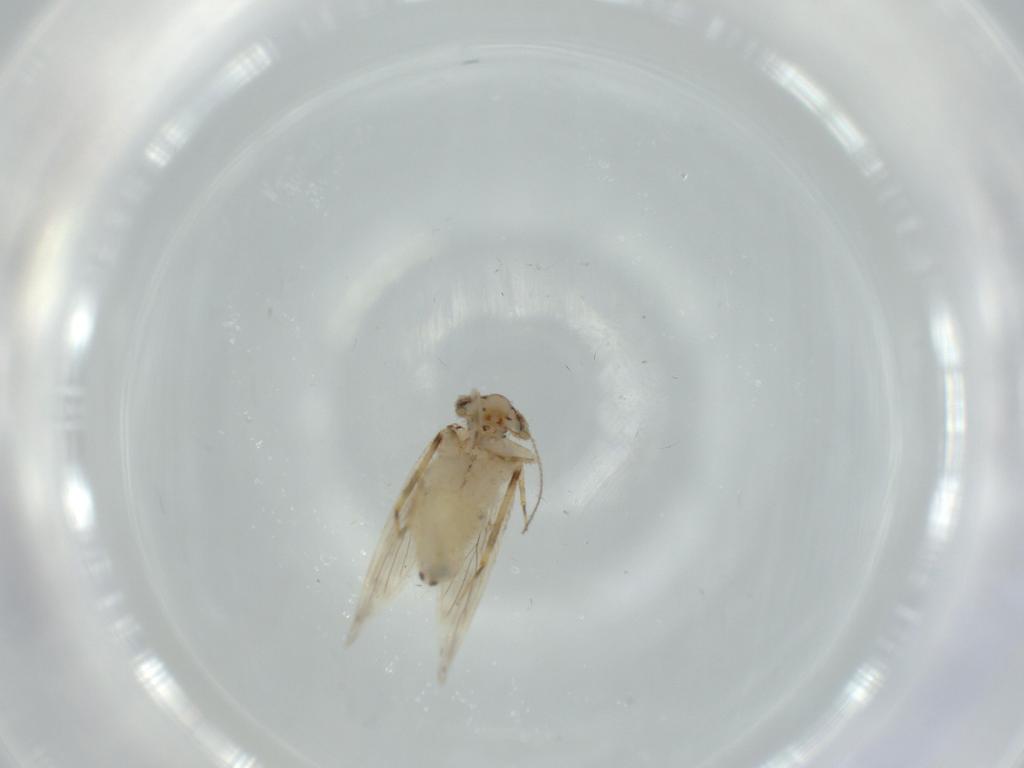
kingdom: Animalia
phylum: Arthropoda
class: Insecta
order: Psocodea
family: Lepidopsocidae
